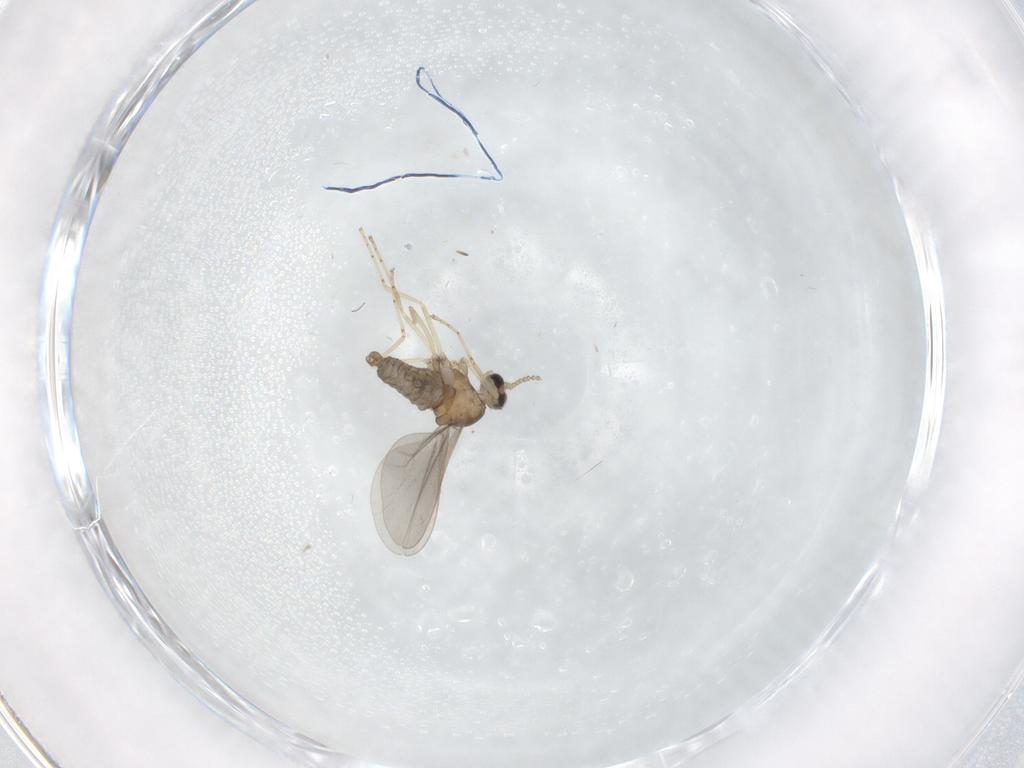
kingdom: Animalia
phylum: Arthropoda
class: Insecta
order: Diptera
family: Cecidomyiidae
